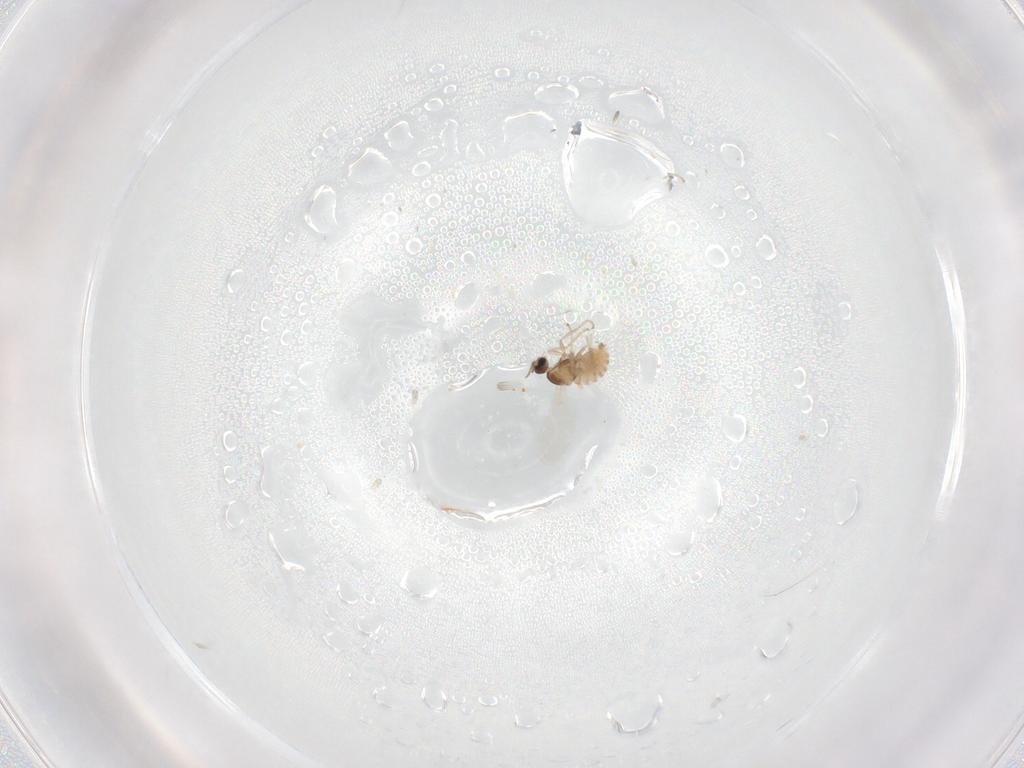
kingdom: Animalia
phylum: Arthropoda
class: Insecta
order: Diptera
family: Cecidomyiidae
